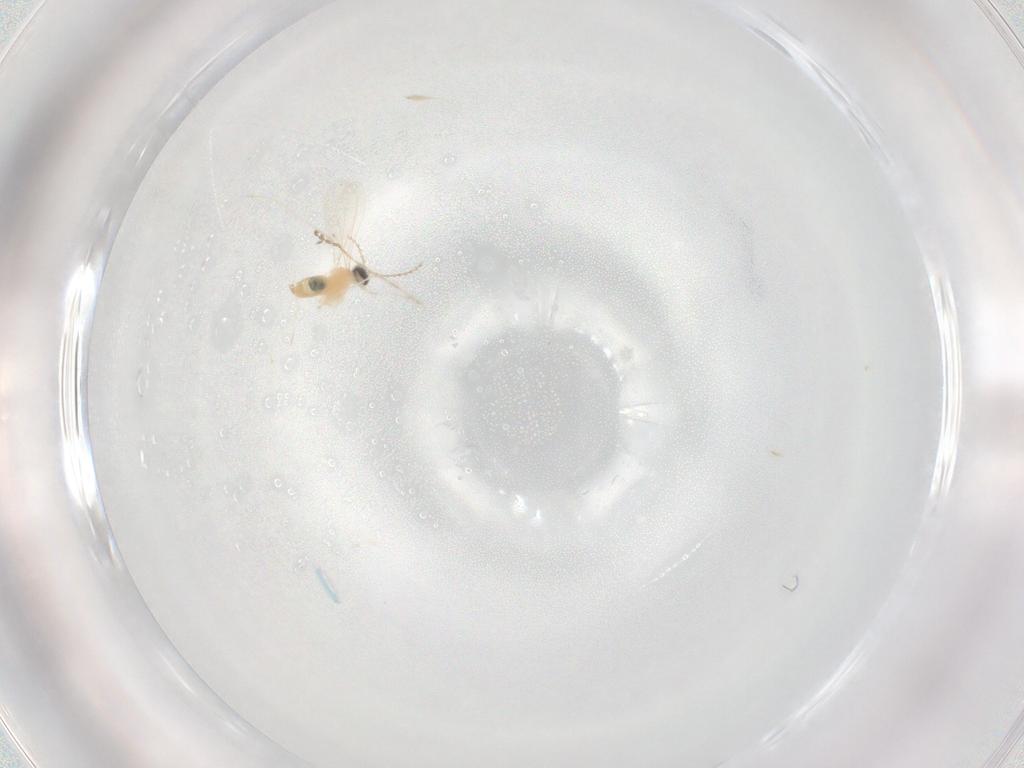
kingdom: Animalia
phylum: Arthropoda
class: Insecta
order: Diptera
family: Cecidomyiidae
